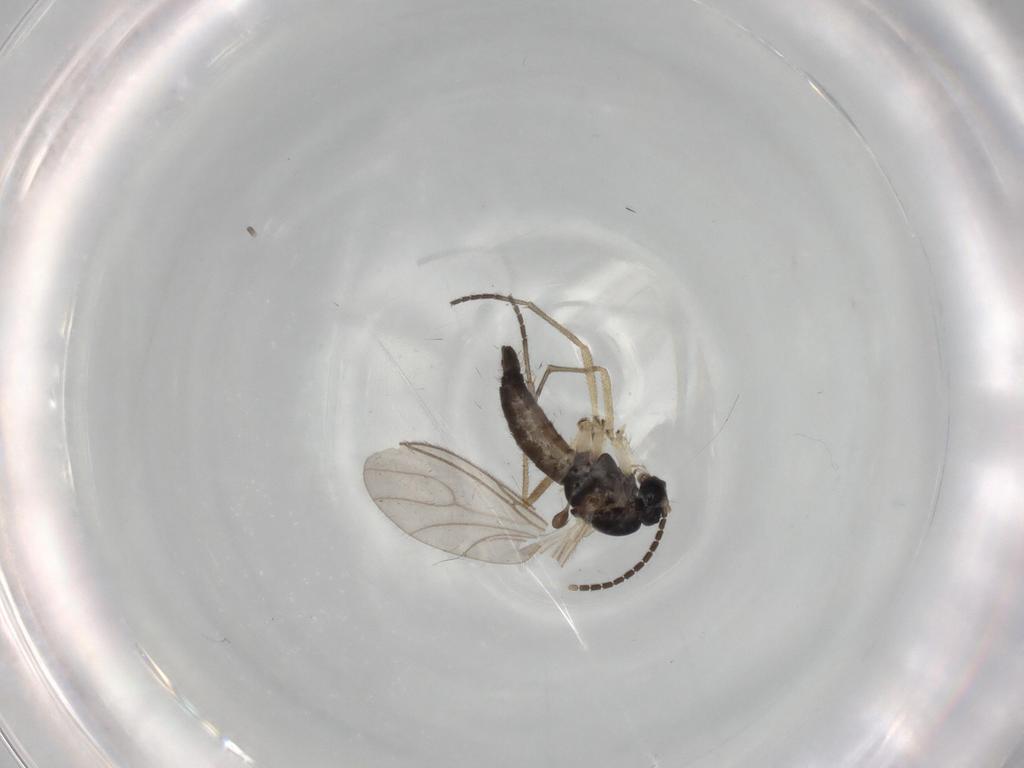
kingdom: Animalia
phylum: Arthropoda
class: Insecta
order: Diptera
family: Sciaridae
